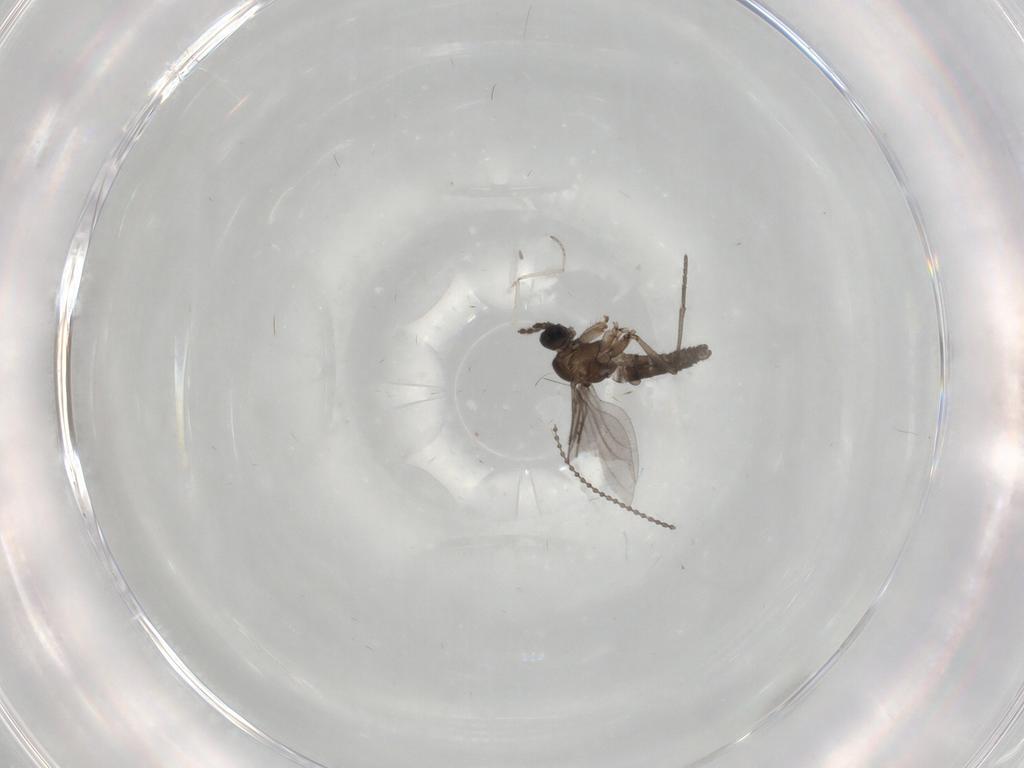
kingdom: Animalia
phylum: Arthropoda
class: Insecta
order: Diptera
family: Cecidomyiidae
